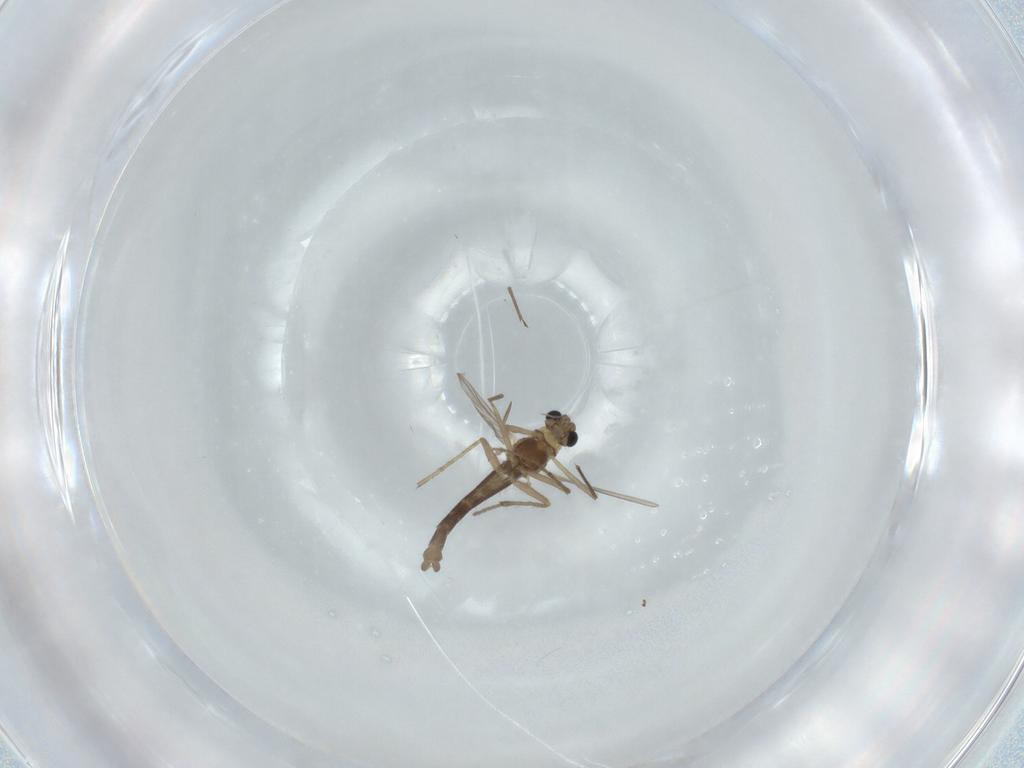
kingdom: Animalia
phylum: Arthropoda
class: Insecta
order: Diptera
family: Chironomidae
